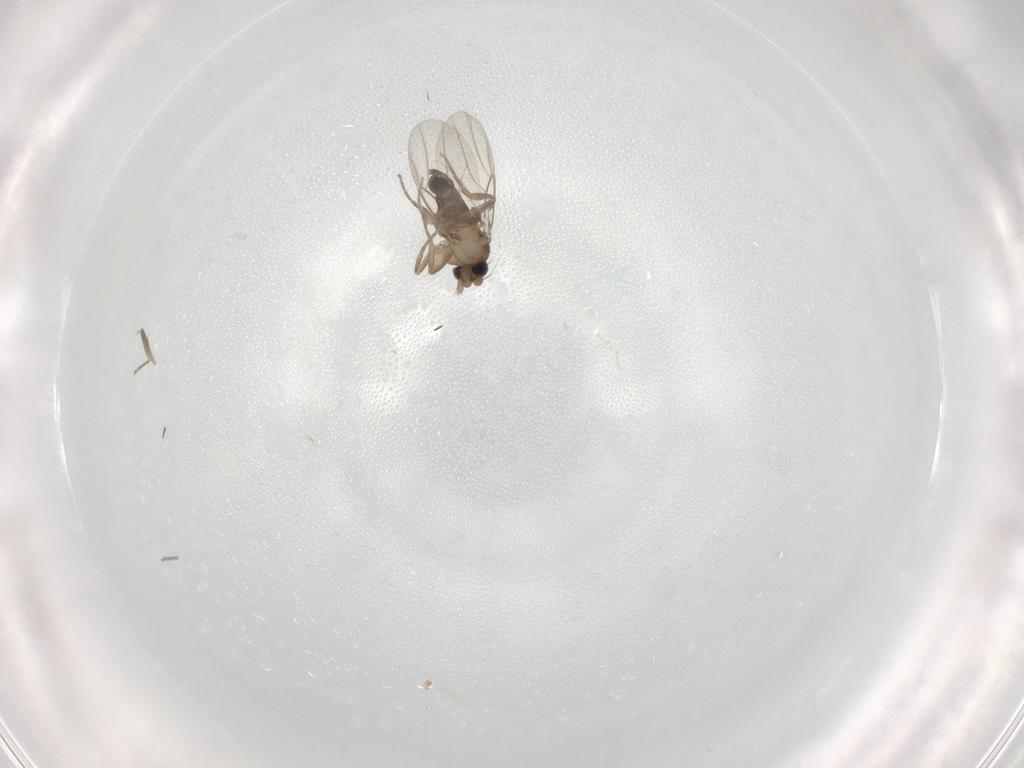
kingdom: Animalia
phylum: Arthropoda
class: Insecta
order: Diptera
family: Phoridae
